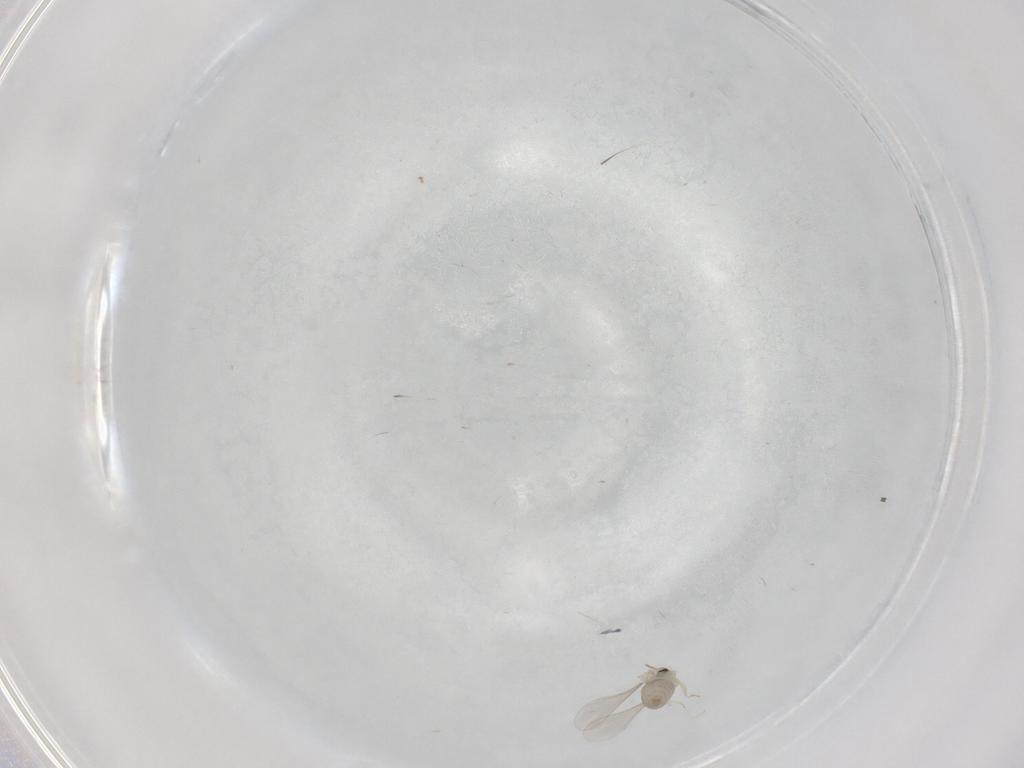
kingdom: Animalia
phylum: Arthropoda
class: Insecta
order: Diptera
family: Cecidomyiidae
